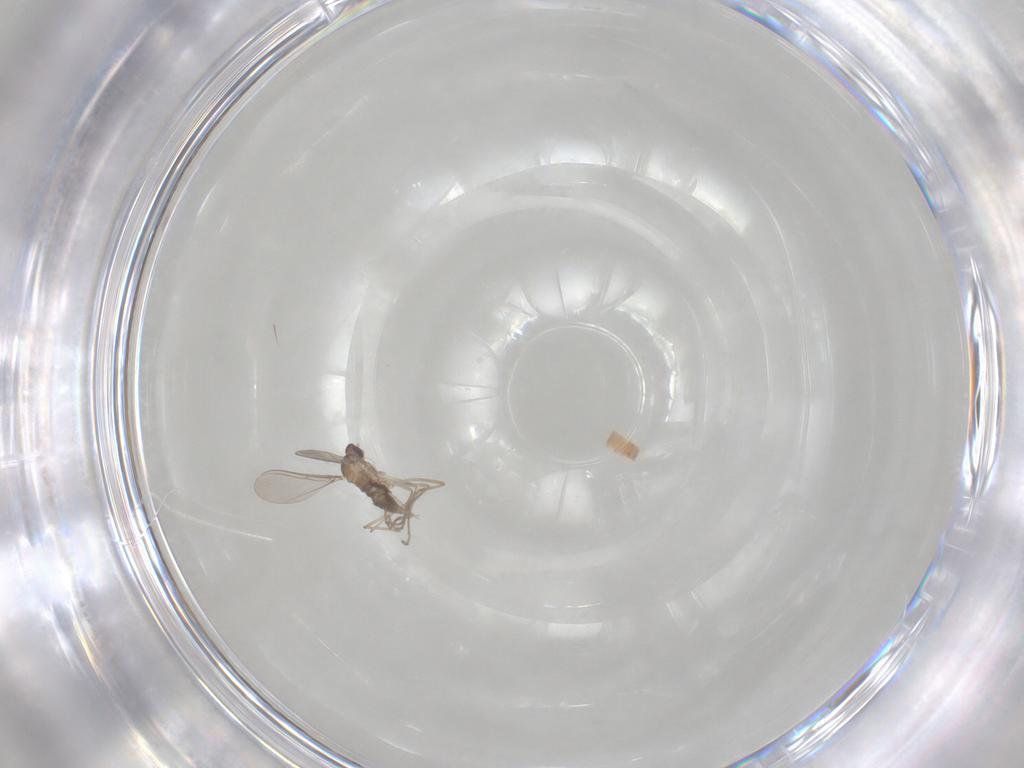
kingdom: Animalia
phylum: Arthropoda
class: Insecta
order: Diptera
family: Cecidomyiidae
